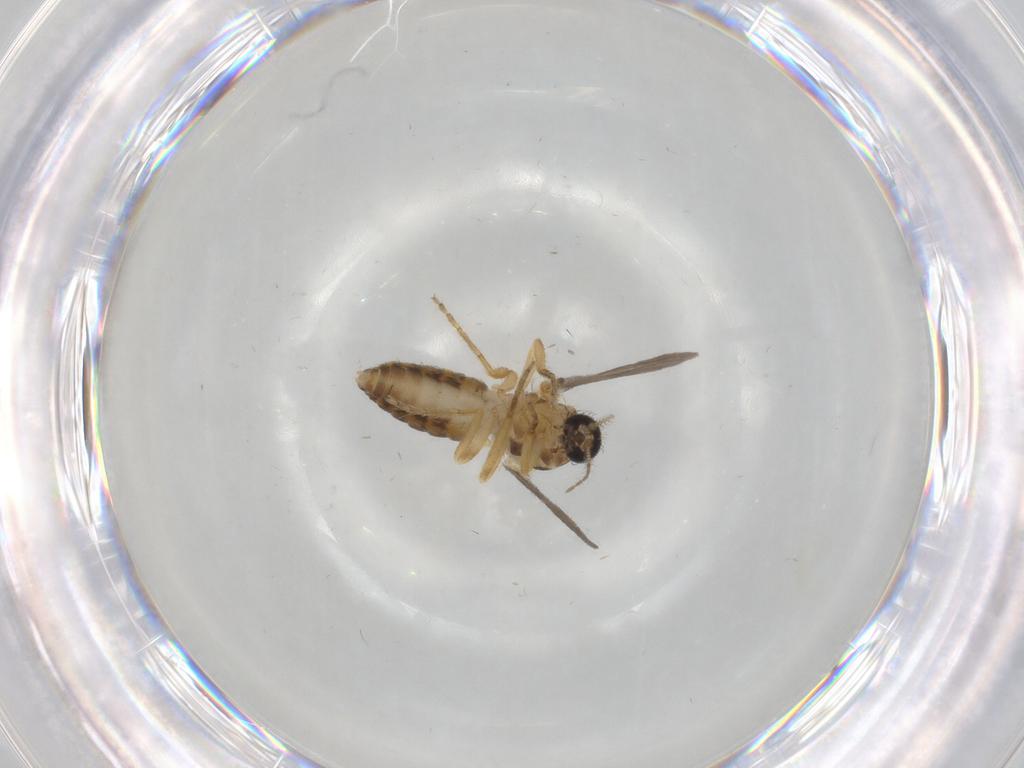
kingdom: Animalia
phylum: Arthropoda
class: Insecta
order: Diptera
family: Ceratopogonidae
